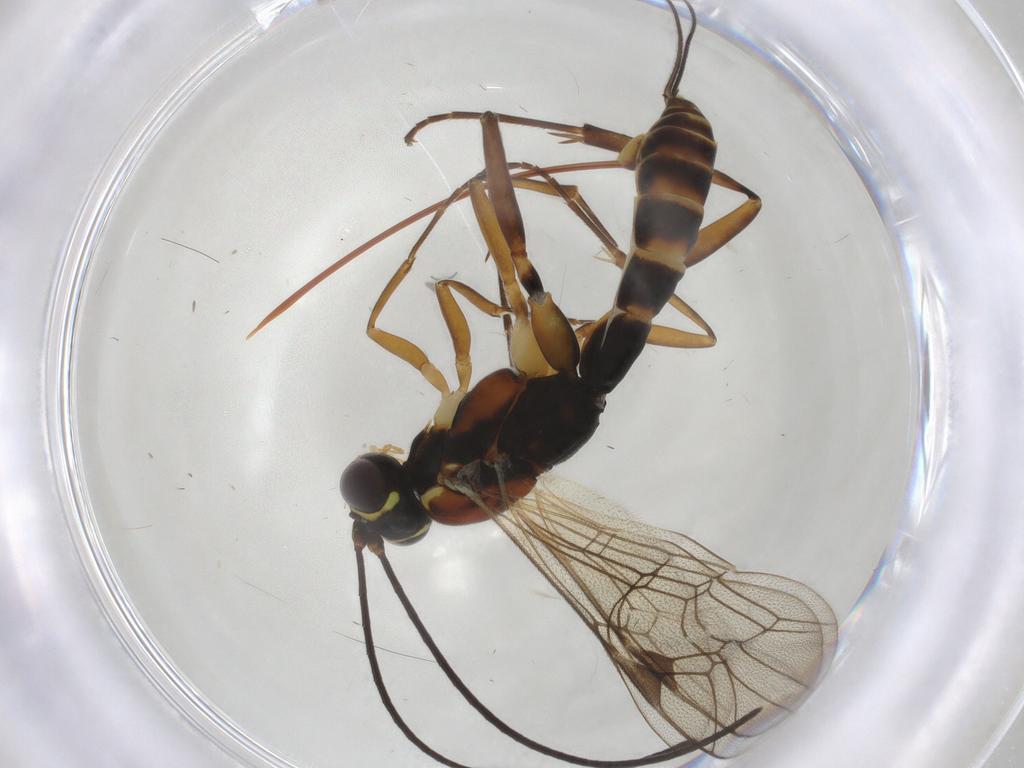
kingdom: Animalia
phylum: Arthropoda
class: Insecta
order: Hymenoptera
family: Ichneumonidae
